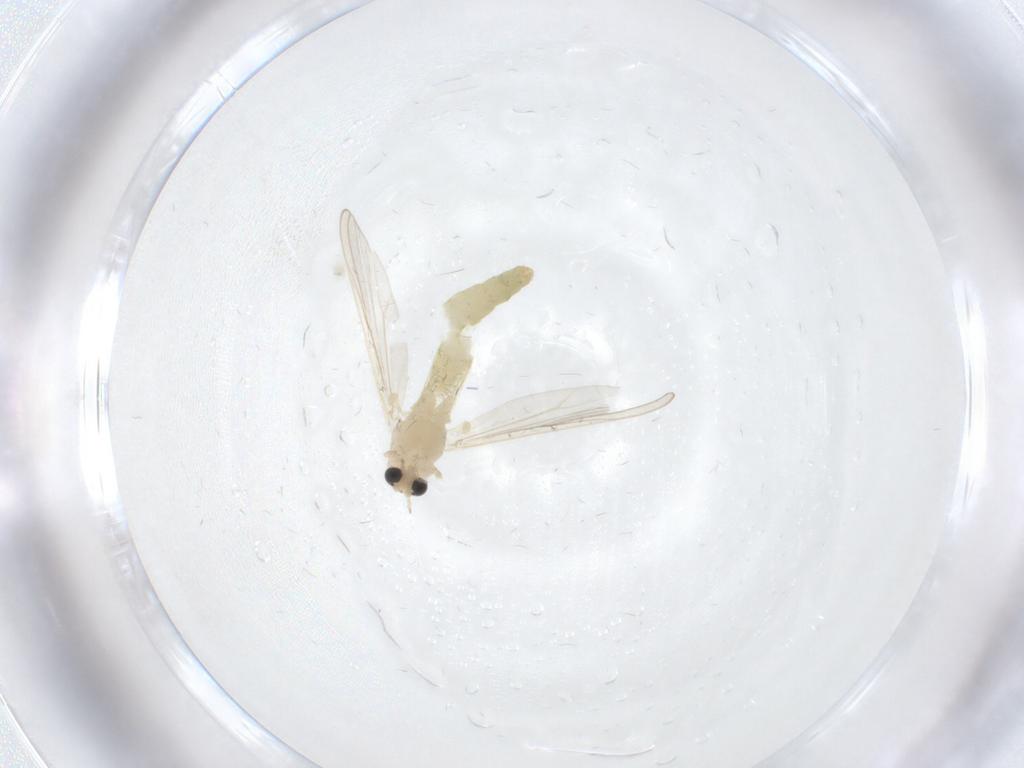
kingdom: Animalia
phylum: Arthropoda
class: Insecta
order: Diptera
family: Chironomidae
